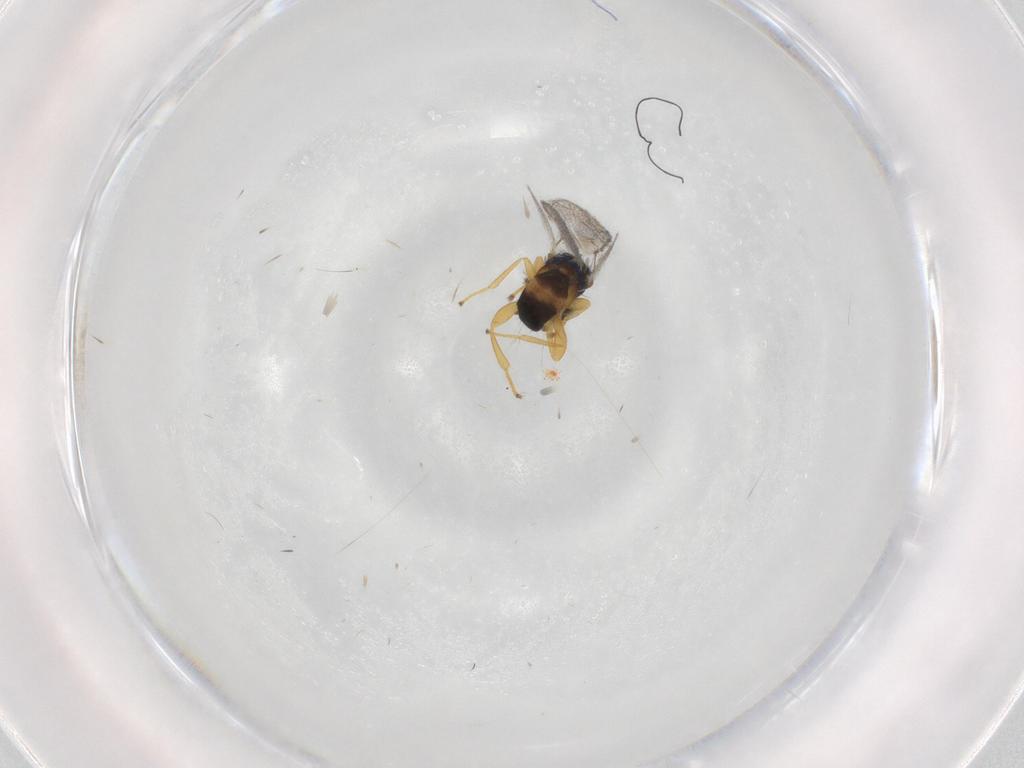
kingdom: Animalia
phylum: Arthropoda
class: Insecta
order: Hymenoptera
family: Torymidae
